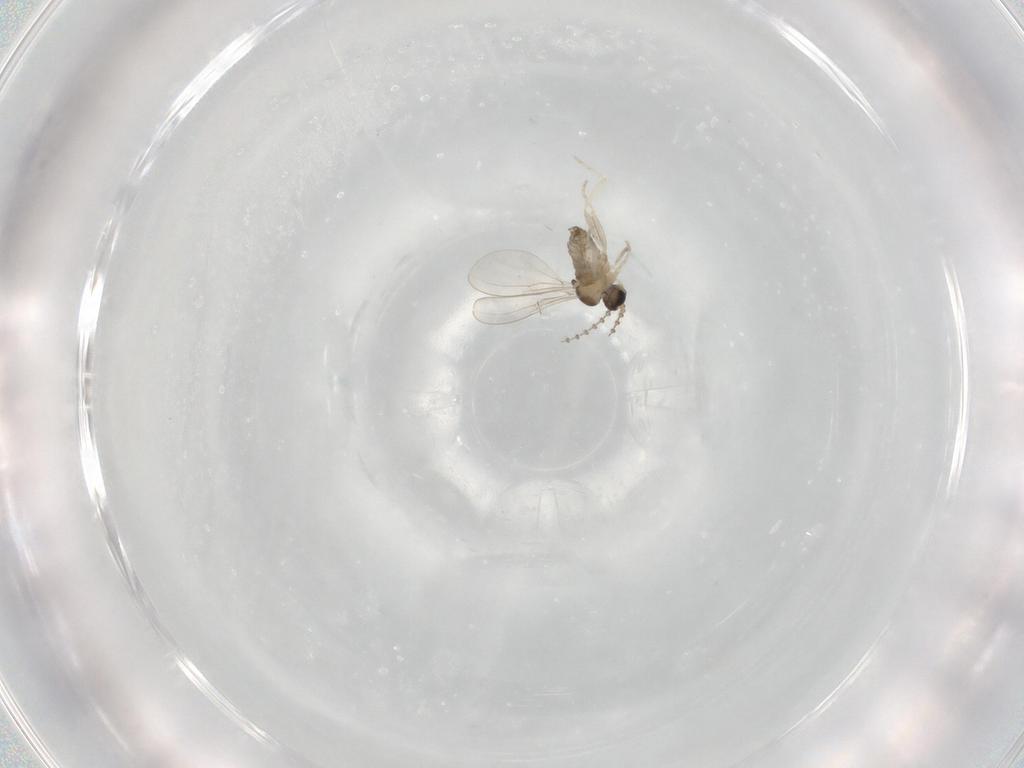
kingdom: Animalia
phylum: Arthropoda
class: Insecta
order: Diptera
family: Cecidomyiidae
